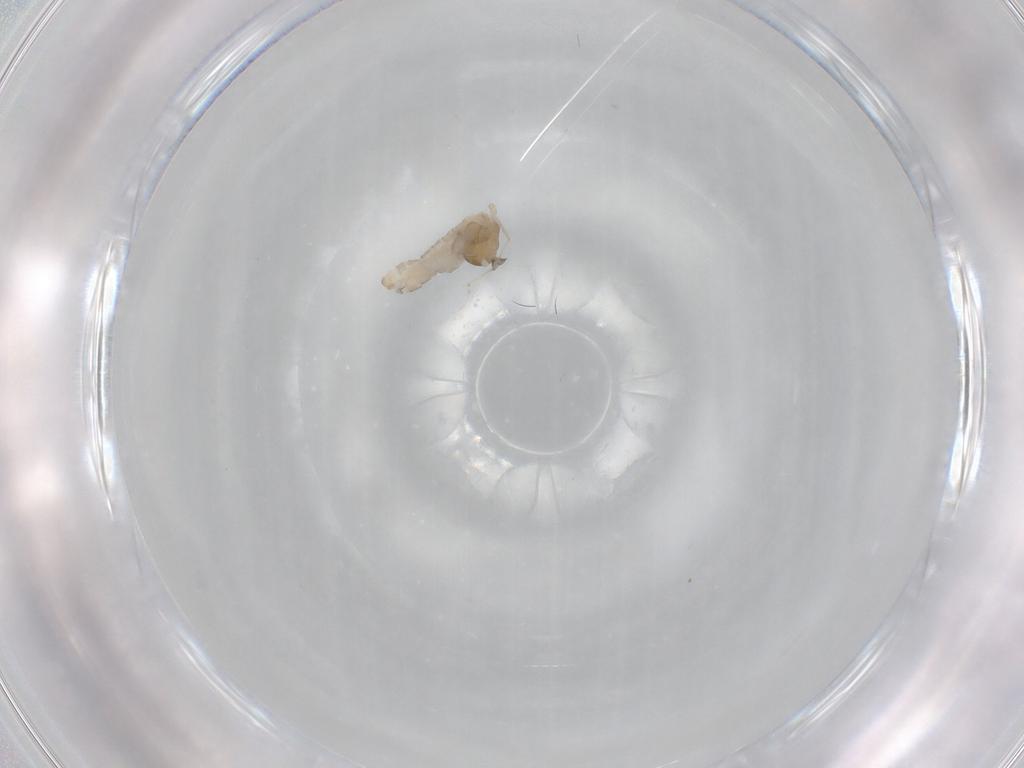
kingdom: Animalia
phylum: Arthropoda
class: Insecta
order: Diptera
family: Cecidomyiidae
